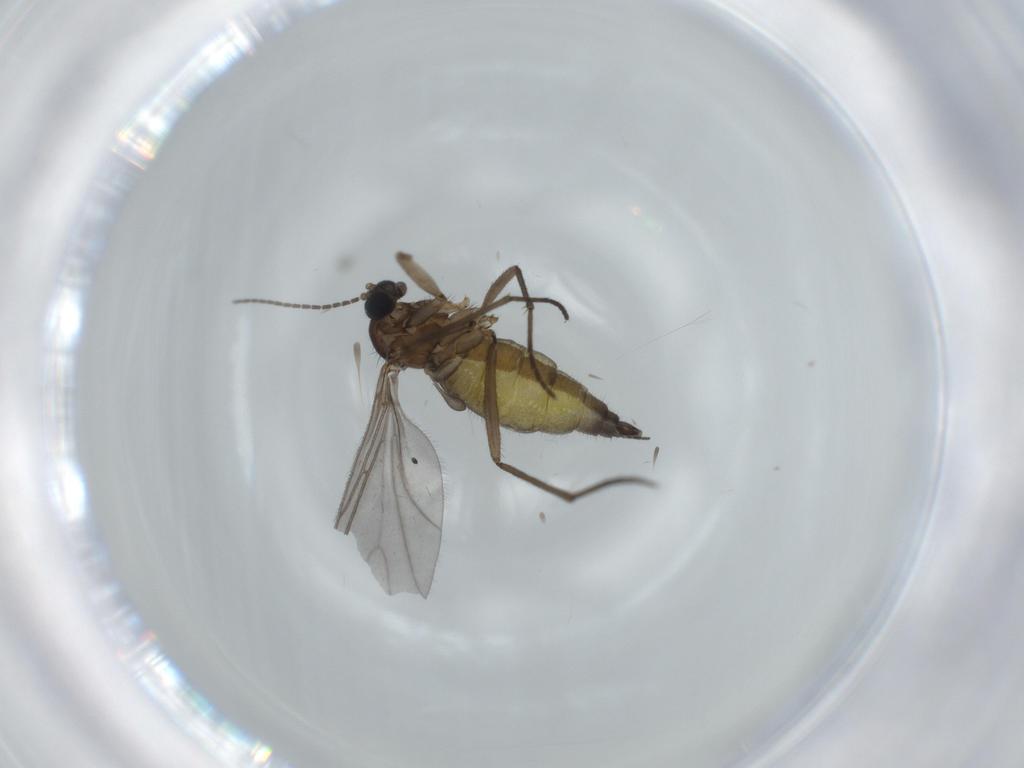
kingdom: Animalia
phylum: Arthropoda
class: Insecta
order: Diptera
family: Sciaridae
